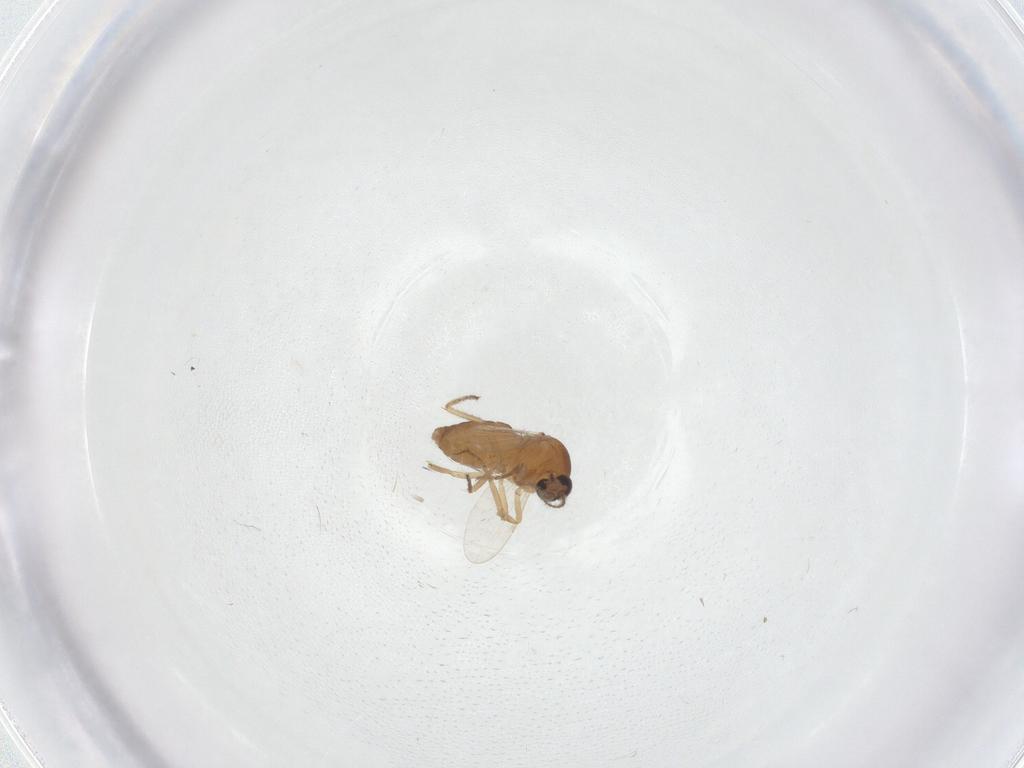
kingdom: Animalia
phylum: Arthropoda
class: Insecta
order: Diptera
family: Ceratopogonidae
